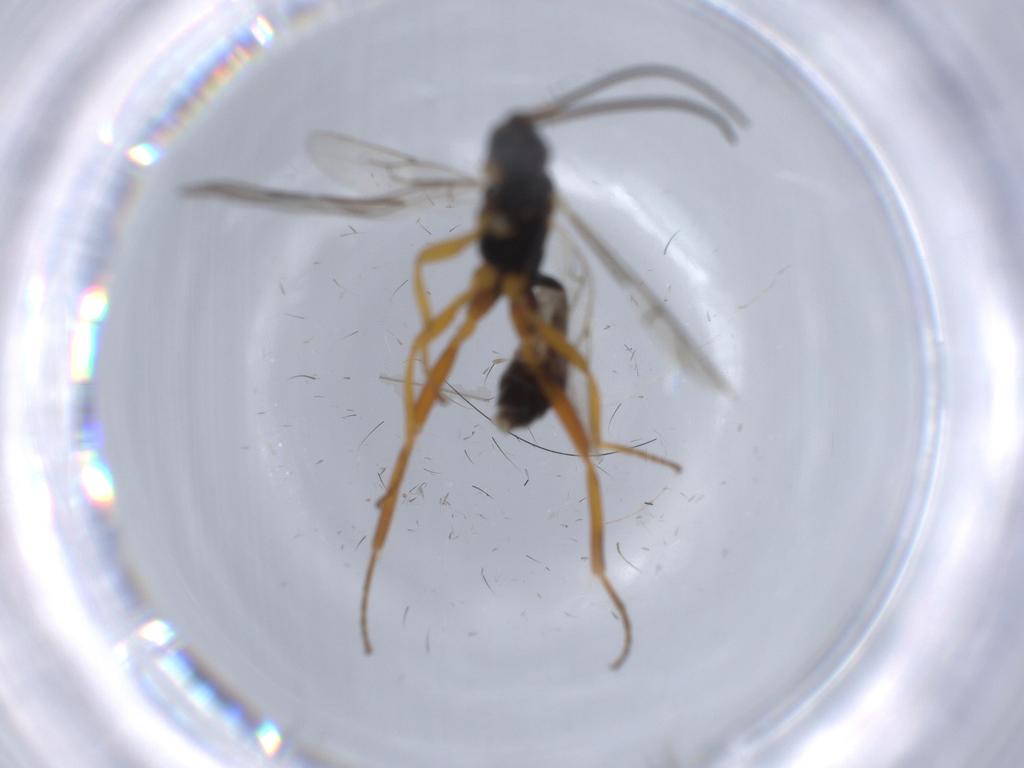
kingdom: Animalia
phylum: Arthropoda
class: Insecta
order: Hymenoptera
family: Ichneumonidae
